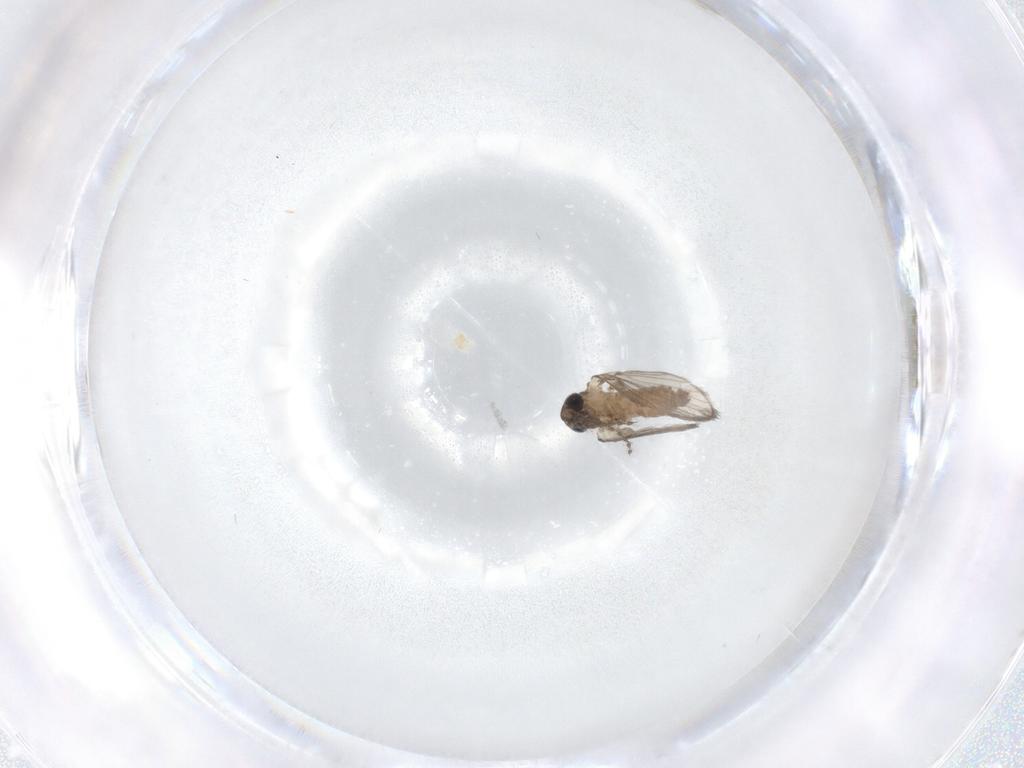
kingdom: Animalia
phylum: Arthropoda
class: Insecta
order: Diptera
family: Psychodidae
